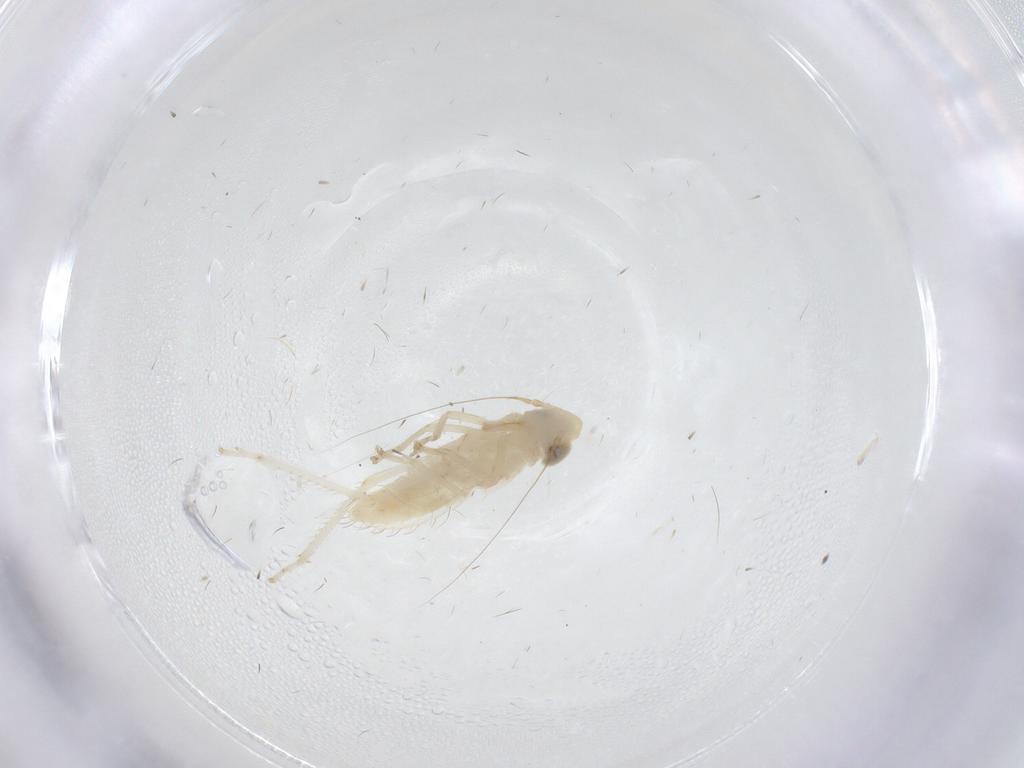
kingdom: Animalia
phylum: Arthropoda
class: Insecta
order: Hemiptera
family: Cicadellidae
